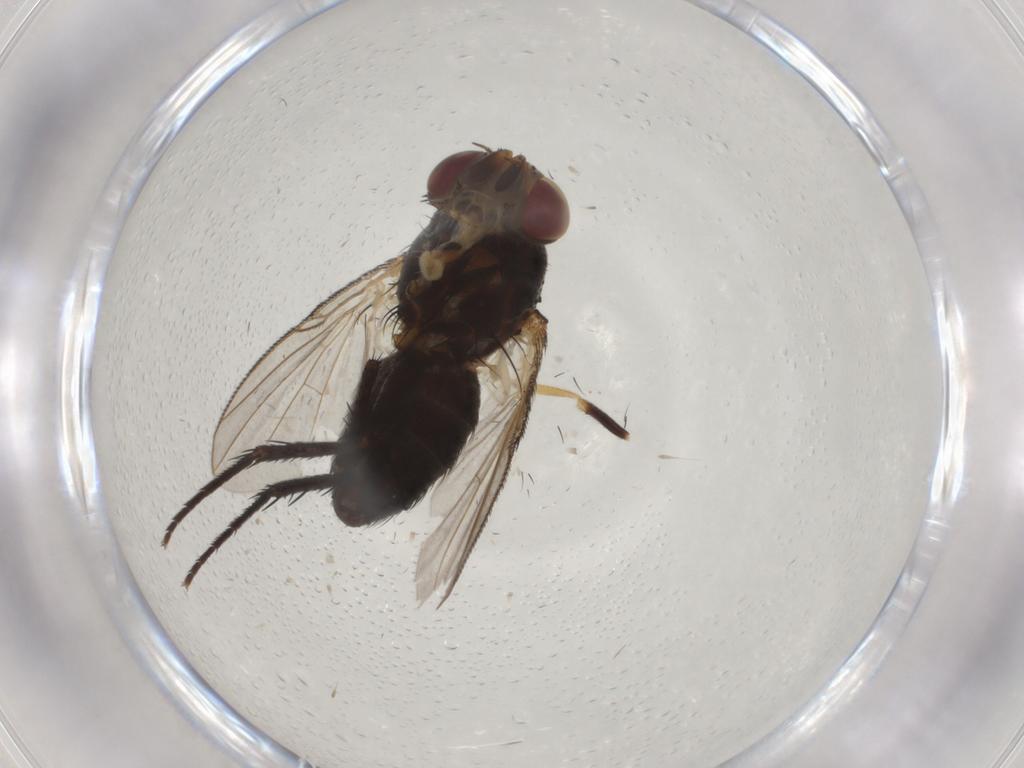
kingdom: Animalia
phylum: Arthropoda
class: Insecta
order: Diptera
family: Tachinidae
